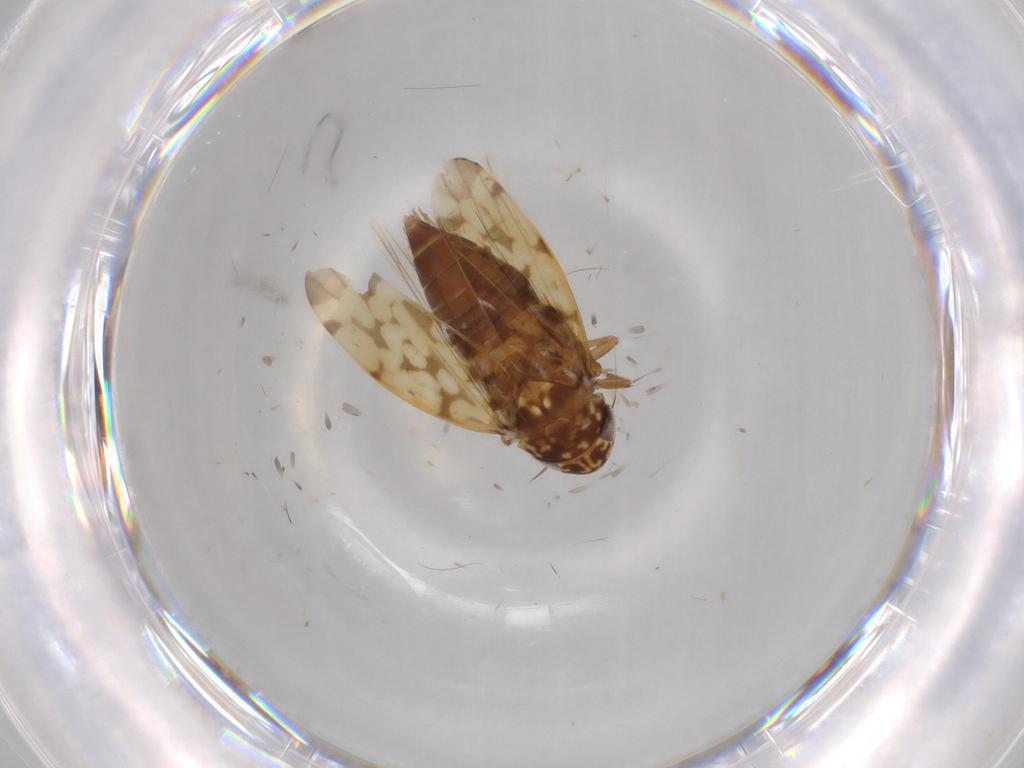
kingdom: Animalia
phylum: Arthropoda
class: Insecta
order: Hemiptera
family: Cicadellidae
